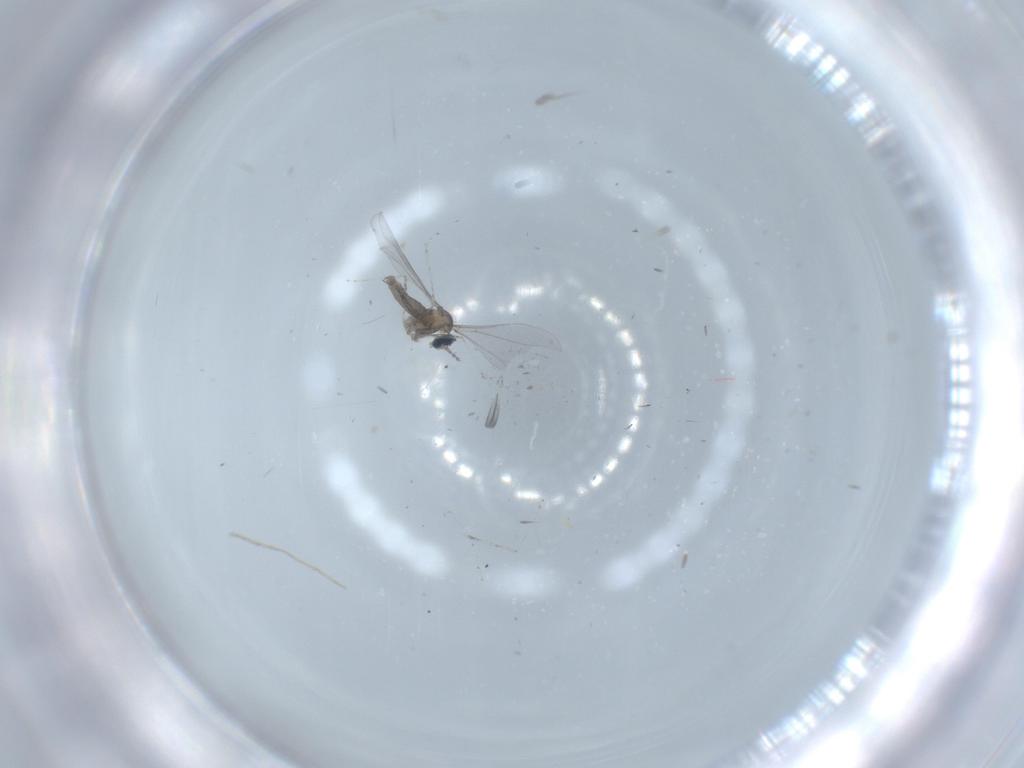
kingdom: Animalia
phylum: Arthropoda
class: Insecta
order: Diptera
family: Cecidomyiidae
